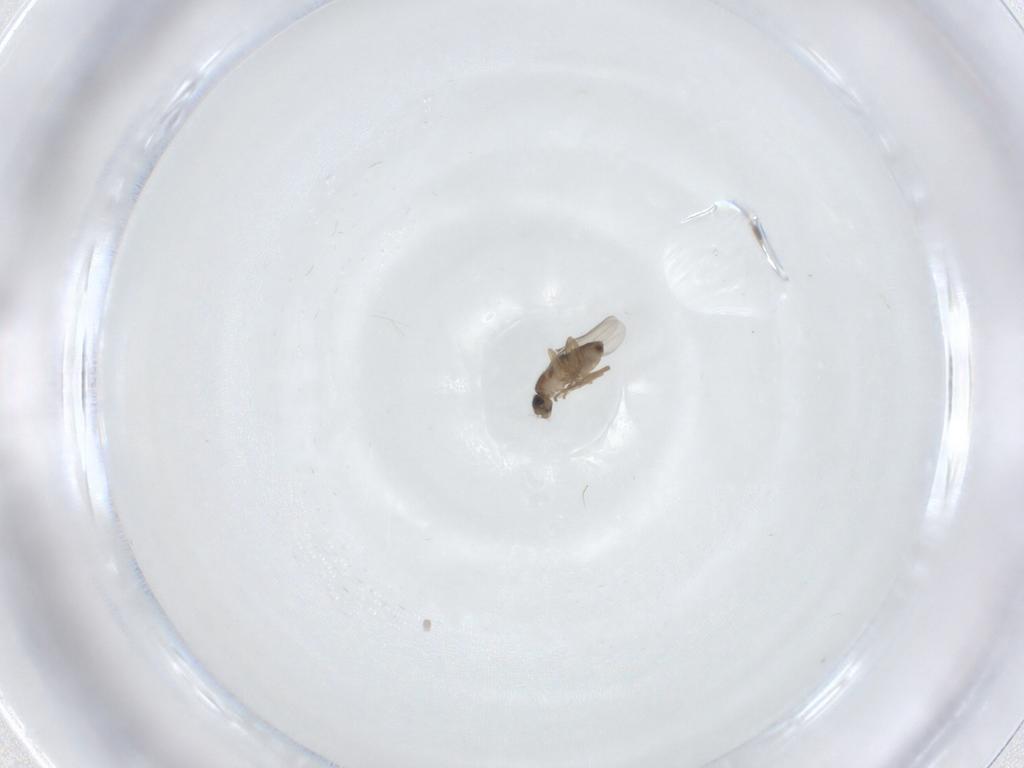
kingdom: Animalia
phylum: Arthropoda
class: Insecta
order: Diptera
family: Phoridae
